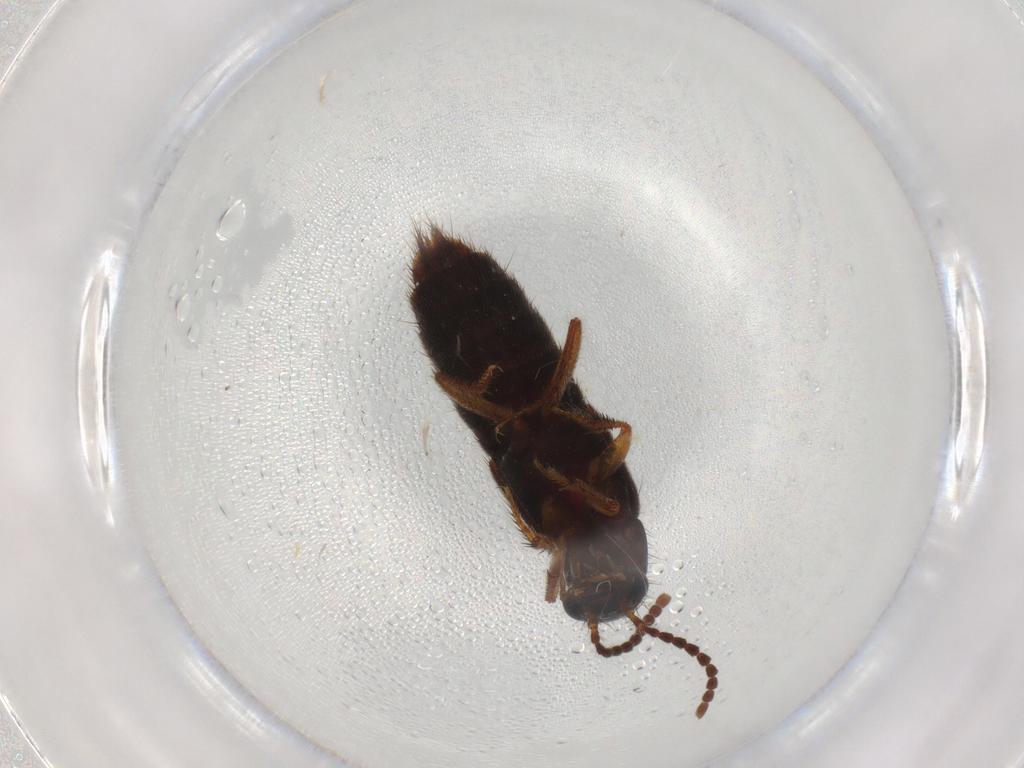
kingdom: Animalia
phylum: Arthropoda
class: Insecta
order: Coleoptera
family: Staphylinidae
